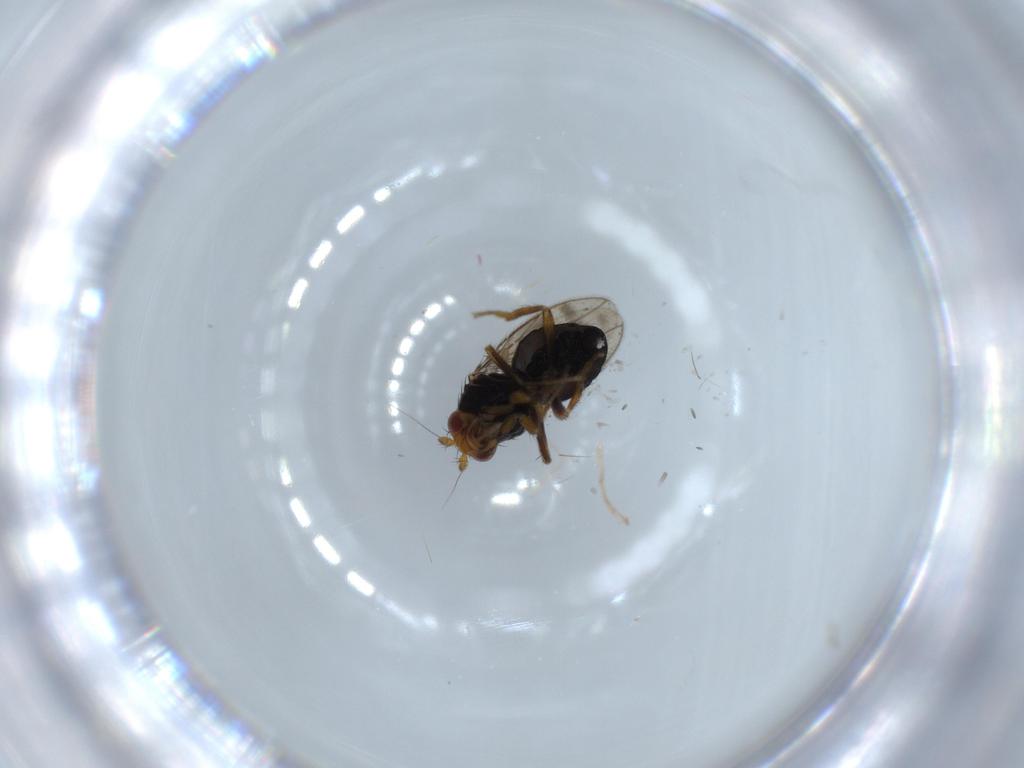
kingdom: Animalia
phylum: Arthropoda
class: Insecta
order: Diptera
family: Sphaeroceridae
